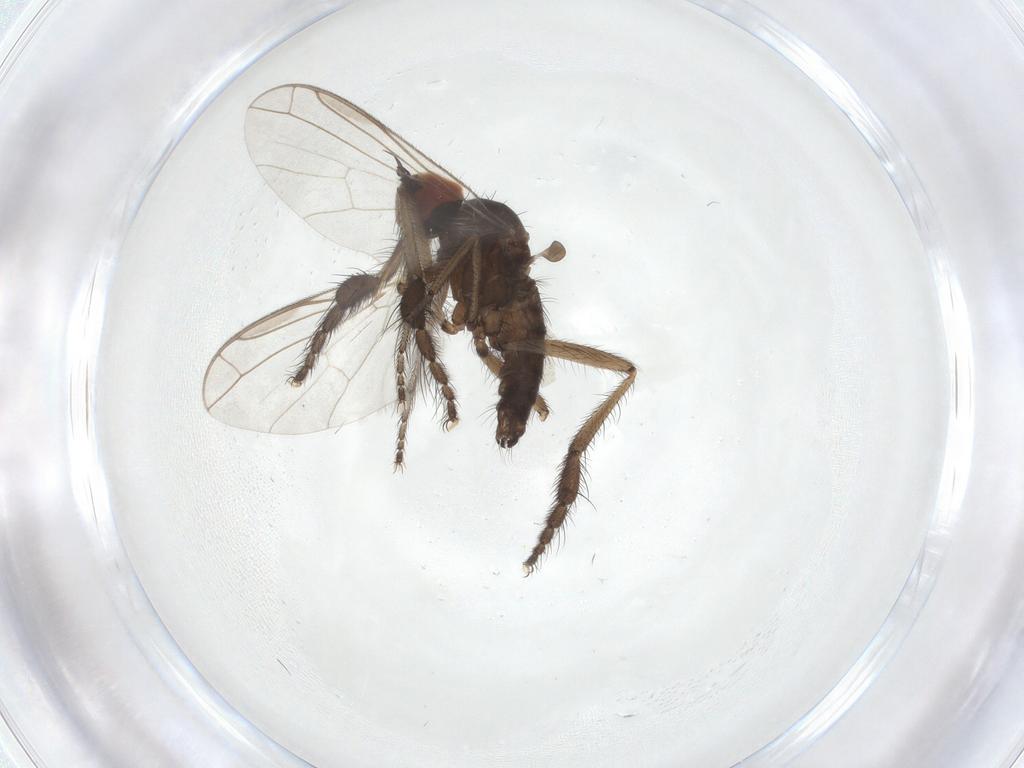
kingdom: Animalia
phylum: Arthropoda
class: Insecta
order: Diptera
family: Empididae
